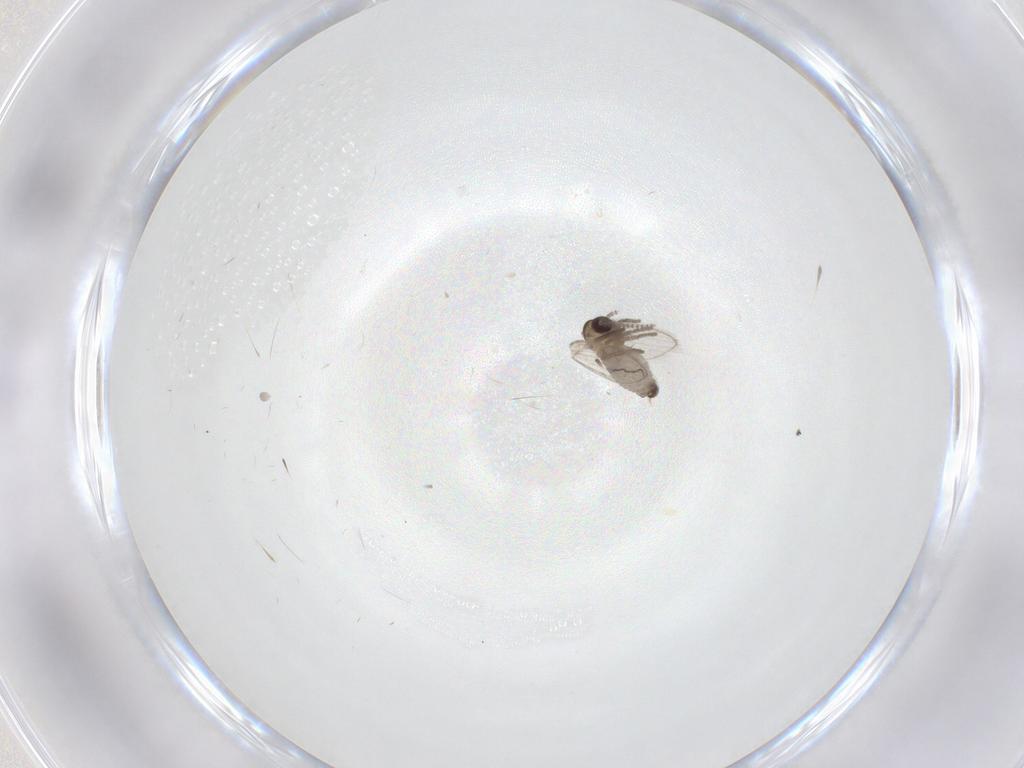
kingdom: Animalia
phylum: Arthropoda
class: Insecta
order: Diptera
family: Psychodidae
